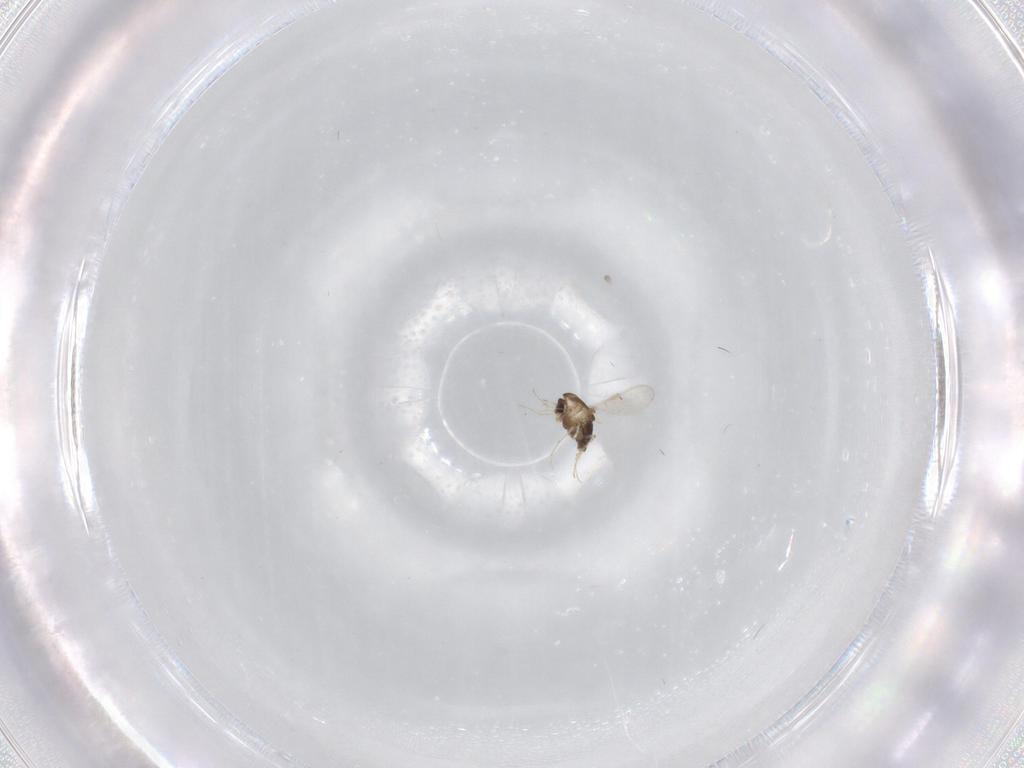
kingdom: Animalia
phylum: Arthropoda
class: Insecta
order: Diptera
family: Chironomidae
